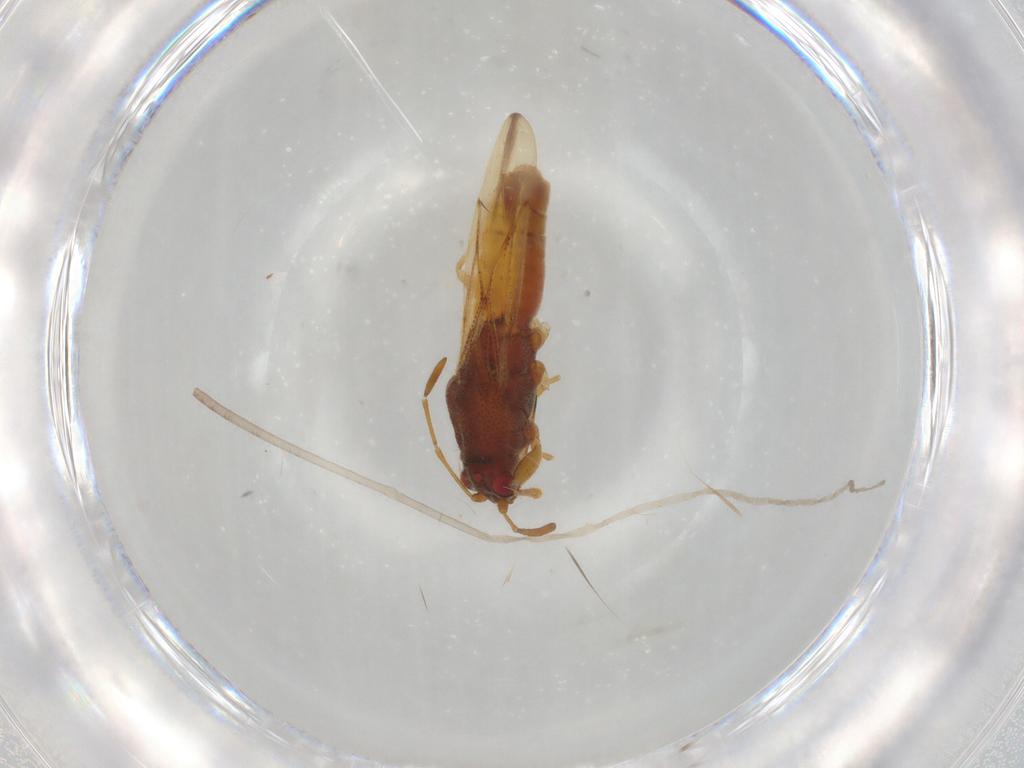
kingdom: Animalia
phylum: Arthropoda
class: Insecta
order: Hemiptera
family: Coreidae
